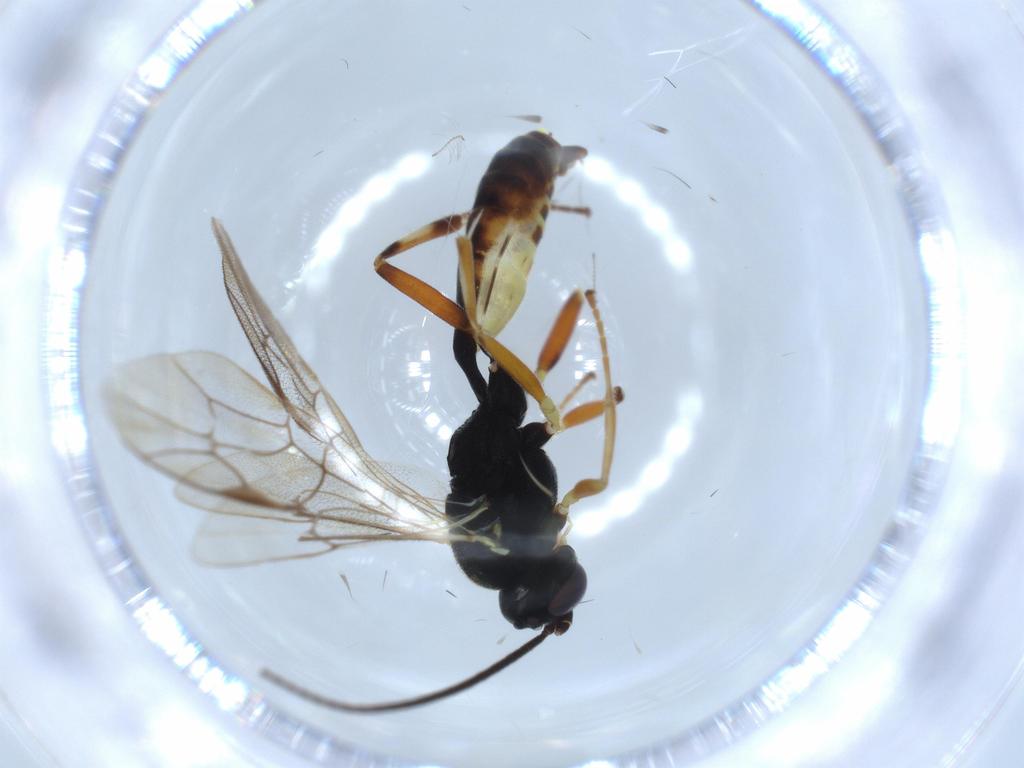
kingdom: Animalia
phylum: Arthropoda
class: Insecta
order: Hymenoptera
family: Ichneumonidae
